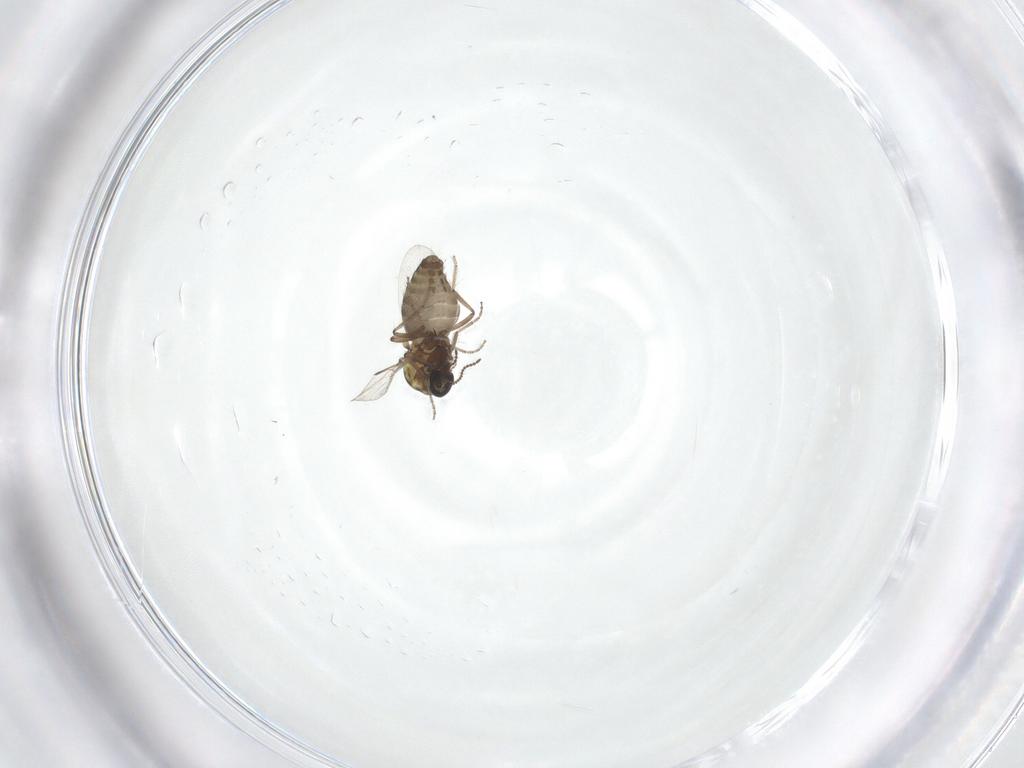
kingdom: Animalia
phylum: Arthropoda
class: Insecta
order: Diptera
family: Ceratopogonidae
